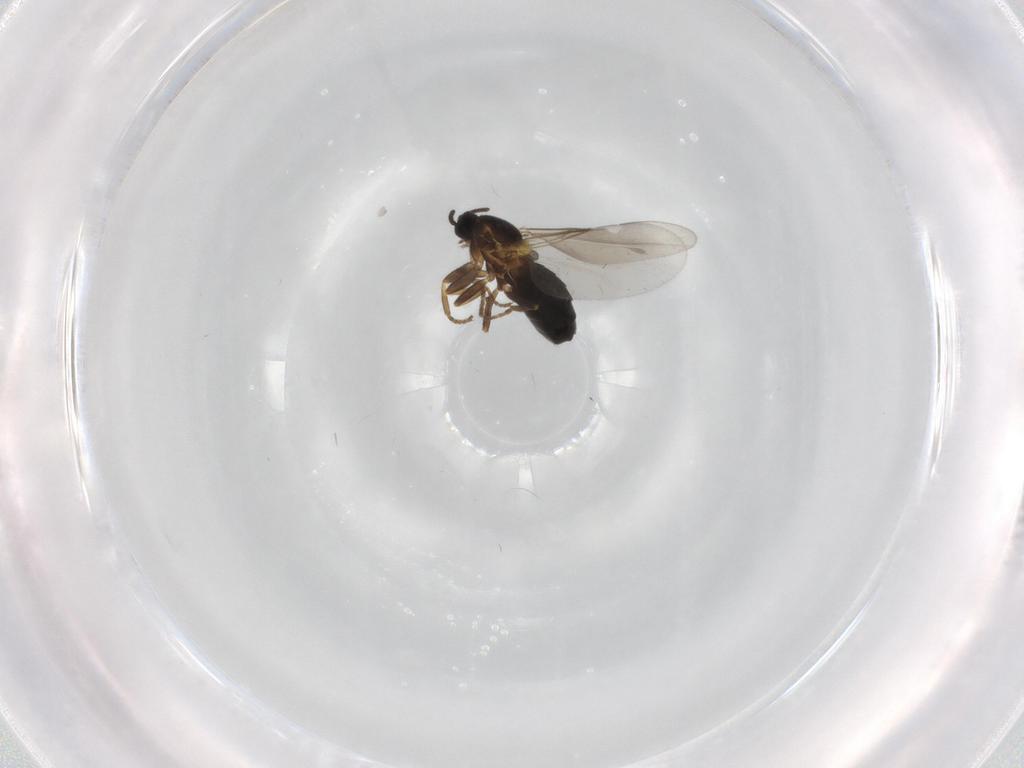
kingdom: Animalia
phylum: Arthropoda
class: Insecta
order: Diptera
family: Scatopsidae
